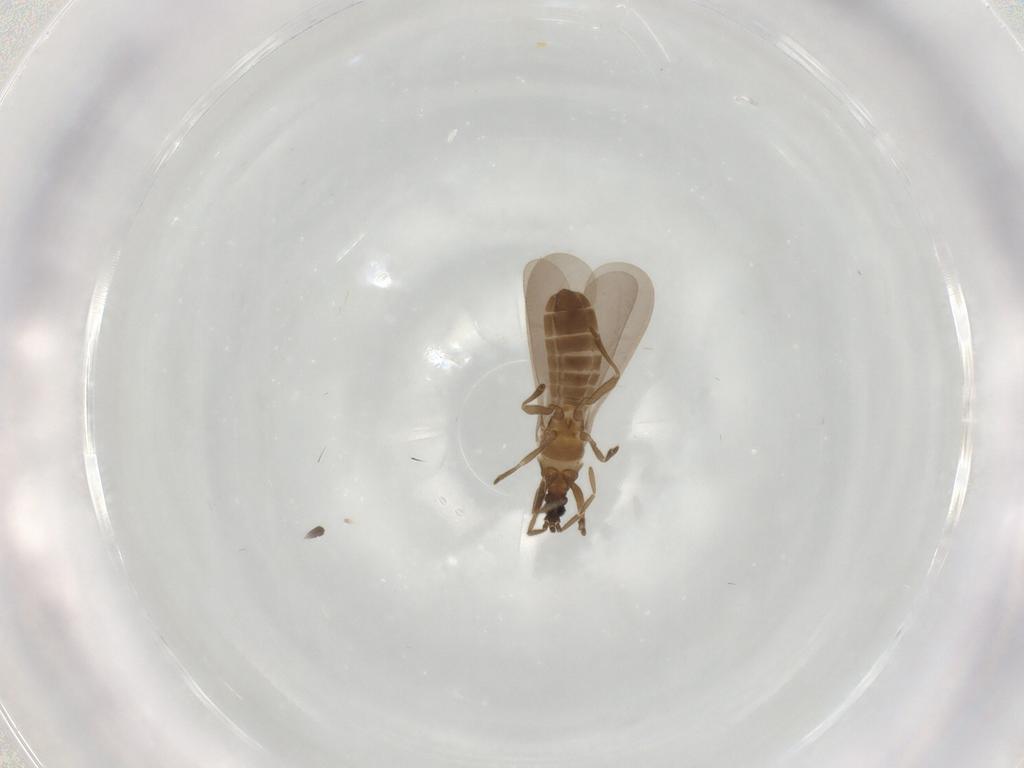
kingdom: Animalia
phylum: Arthropoda
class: Insecta
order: Hemiptera
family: Enicocephalidae
